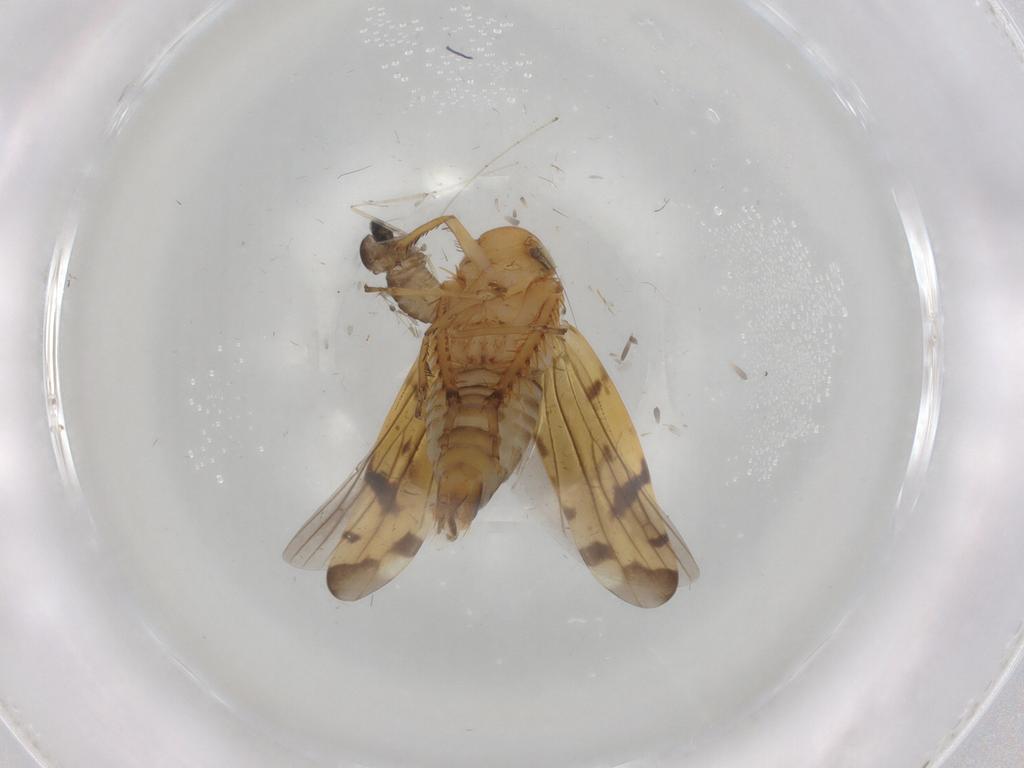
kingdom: Animalia
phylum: Arthropoda
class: Insecta
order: Hemiptera
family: Cicadellidae
